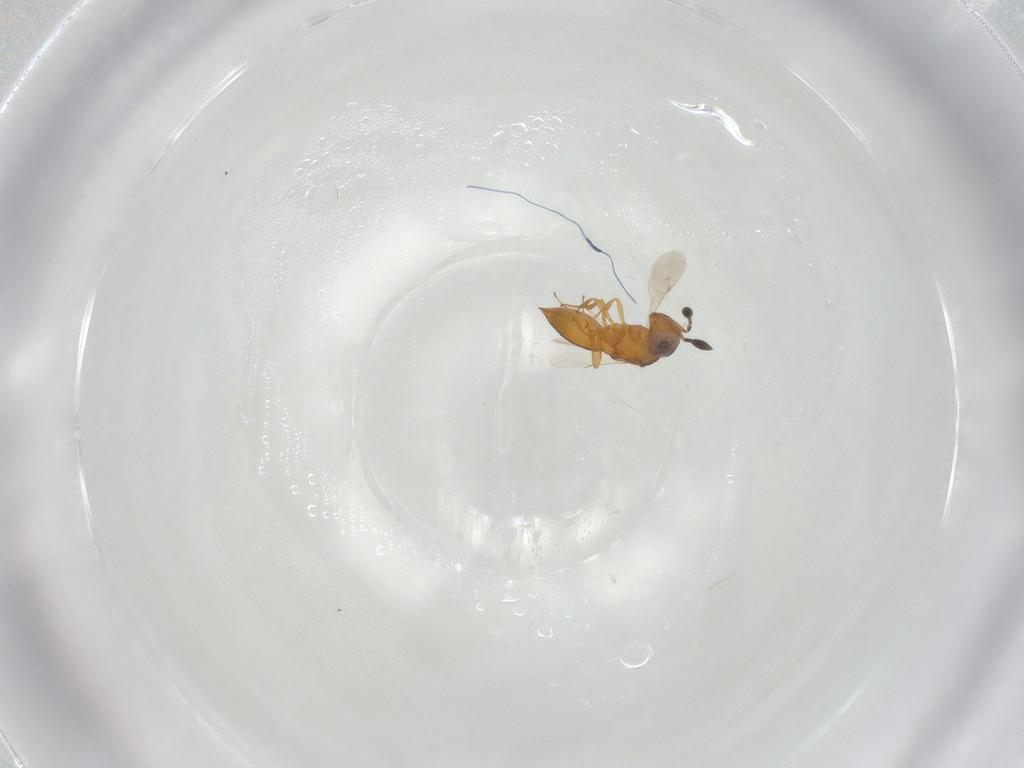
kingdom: Animalia
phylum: Arthropoda
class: Insecta
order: Hymenoptera
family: Scelionidae
